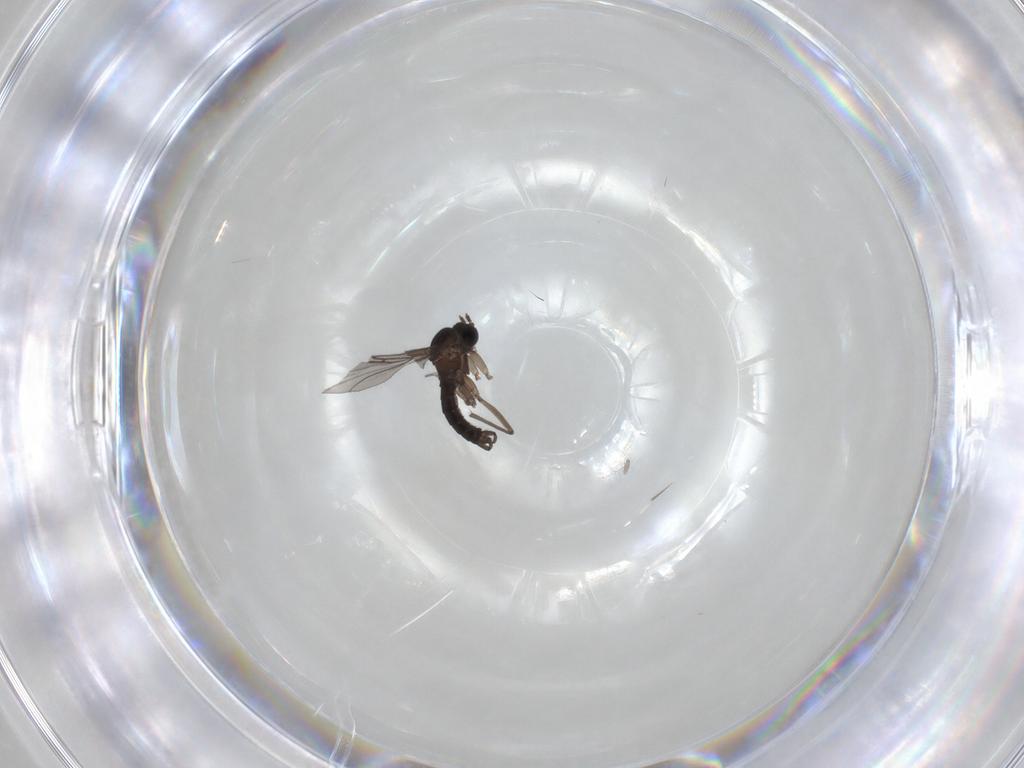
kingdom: Animalia
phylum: Arthropoda
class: Insecta
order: Diptera
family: Sciaridae
